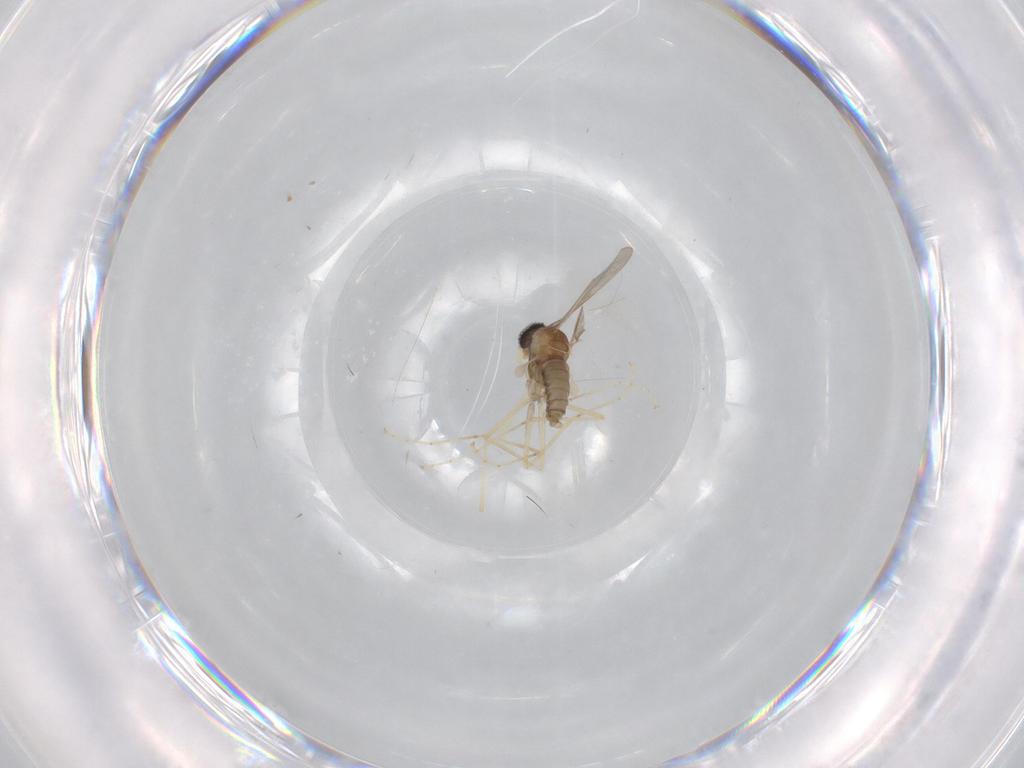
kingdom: Animalia
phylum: Arthropoda
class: Insecta
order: Diptera
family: Cecidomyiidae
